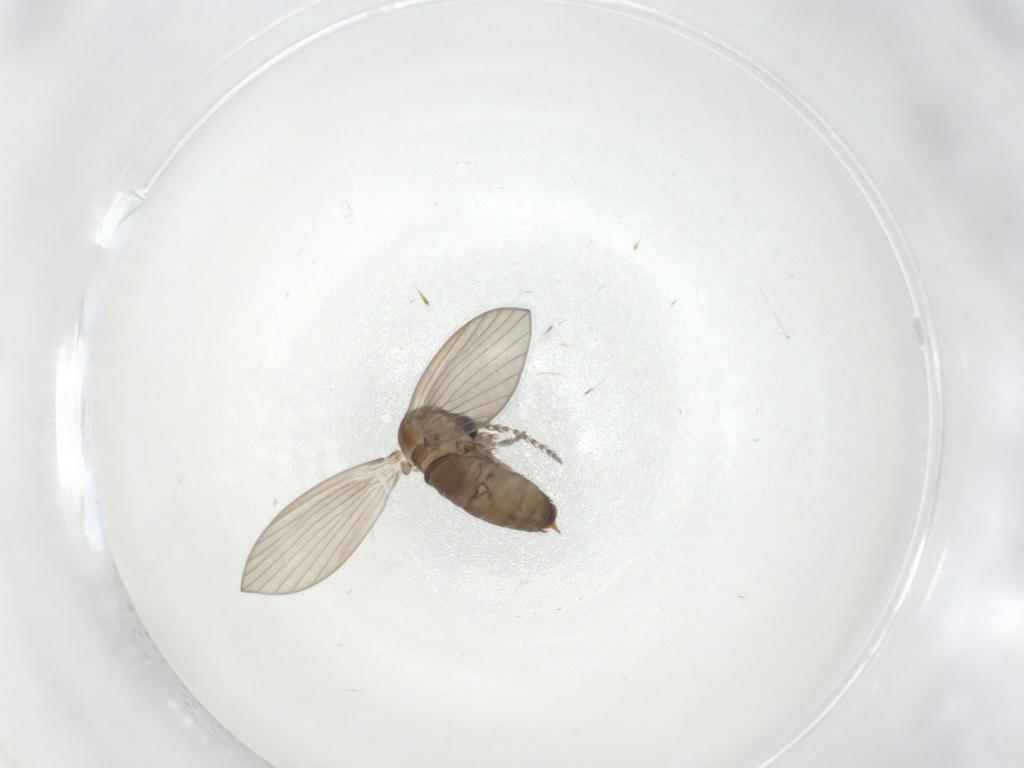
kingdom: Animalia
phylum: Arthropoda
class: Insecta
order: Diptera
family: Psychodidae
